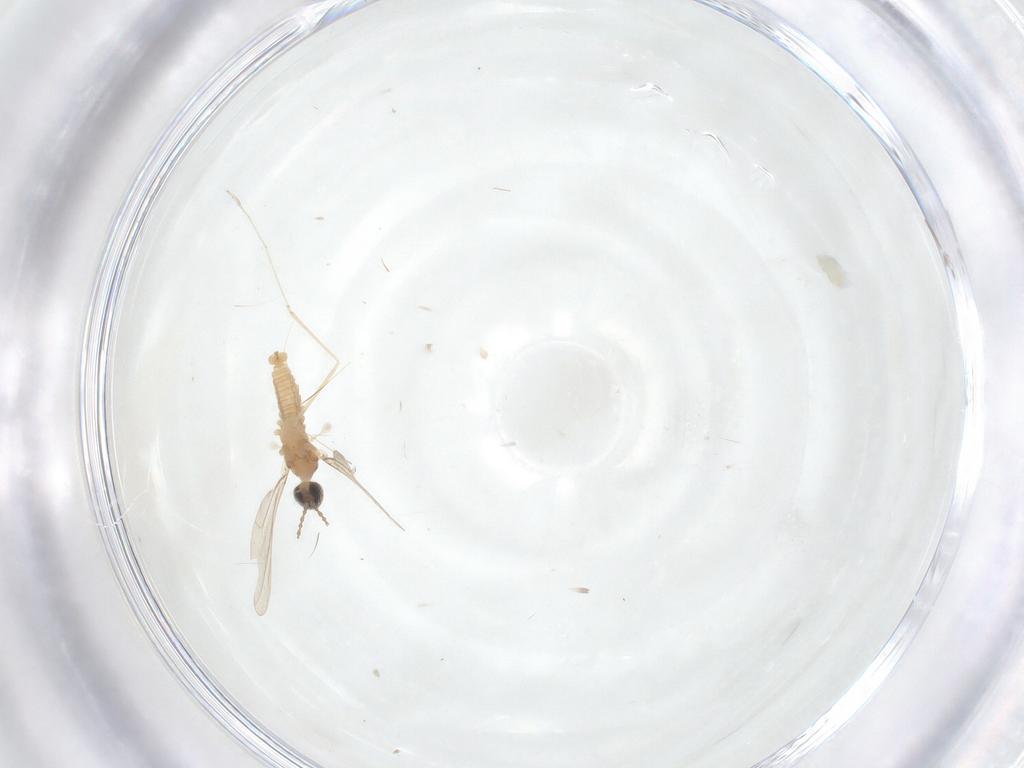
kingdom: Animalia
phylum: Arthropoda
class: Insecta
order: Diptera
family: Cecidomyiidae
